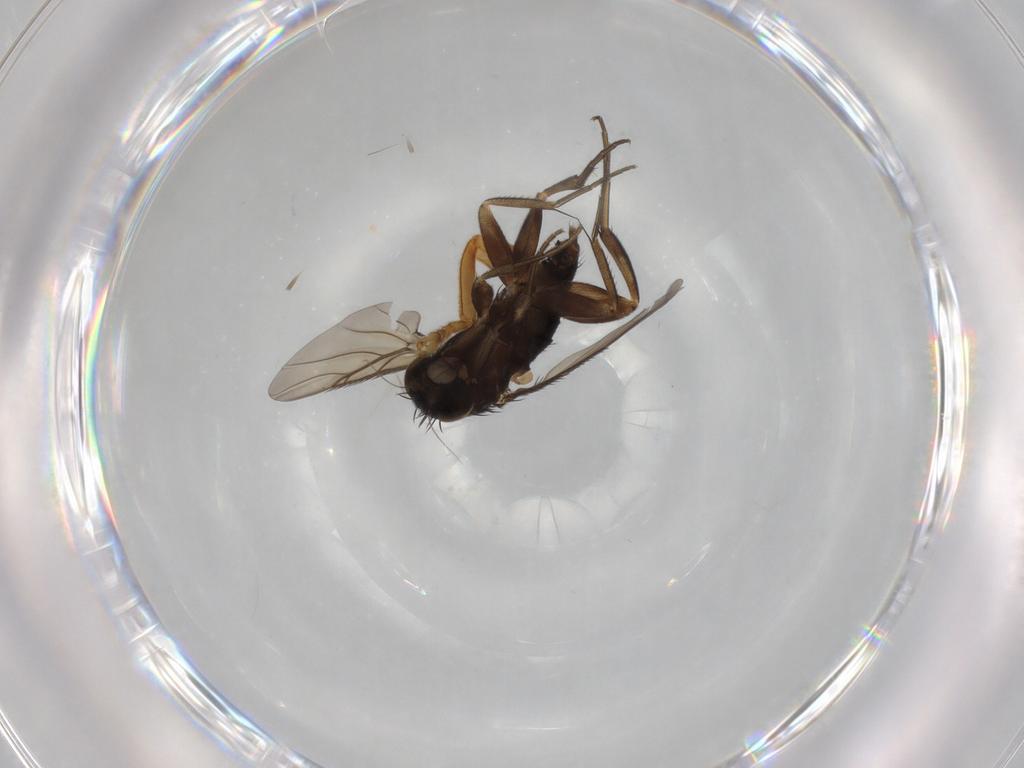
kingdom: Animalia
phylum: Arthropoda
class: Insecta
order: Diptera
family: Phoridae
